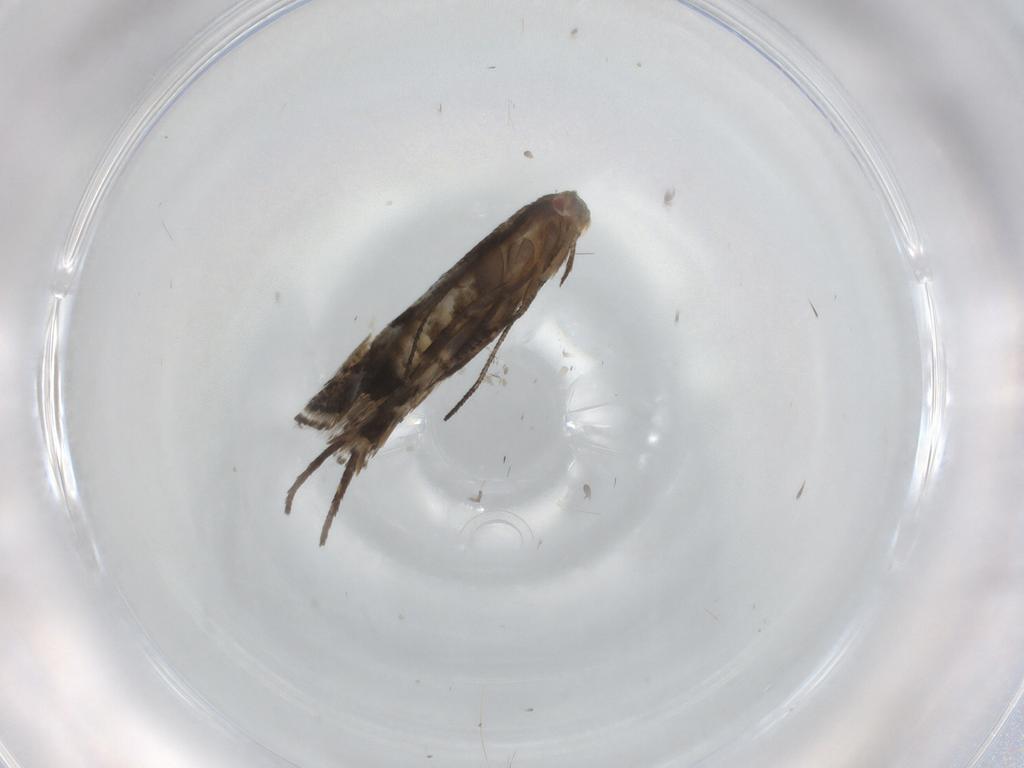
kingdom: Animalia
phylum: Arthropoda
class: Insecta
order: Lepidoptera
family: Momphidae
